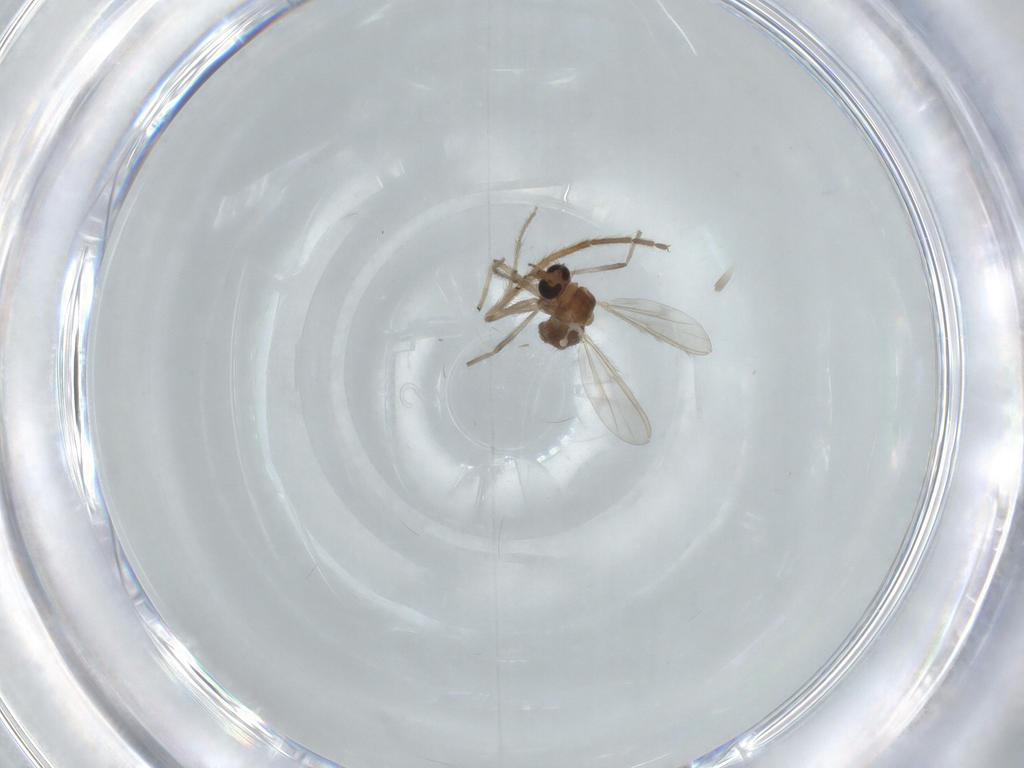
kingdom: Animalia
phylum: Arthropoda
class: Insecta
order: Diptera
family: Chironomidae
